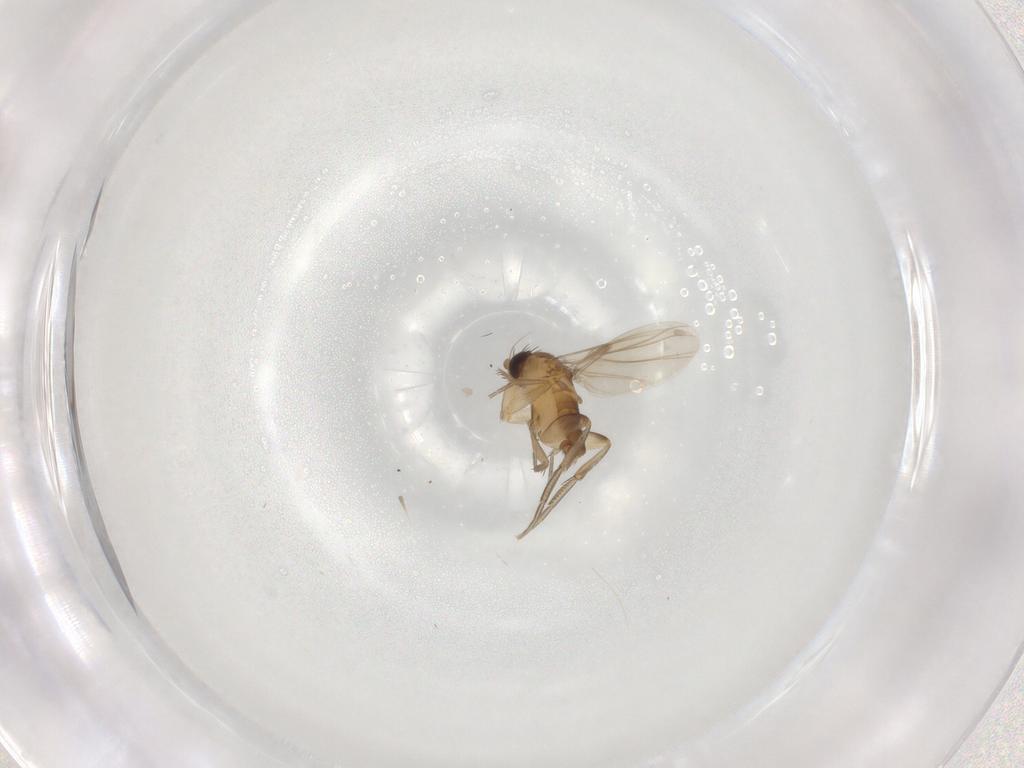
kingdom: Animalia
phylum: Arthropoda
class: Insecta
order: Diptera
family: Phoridae
